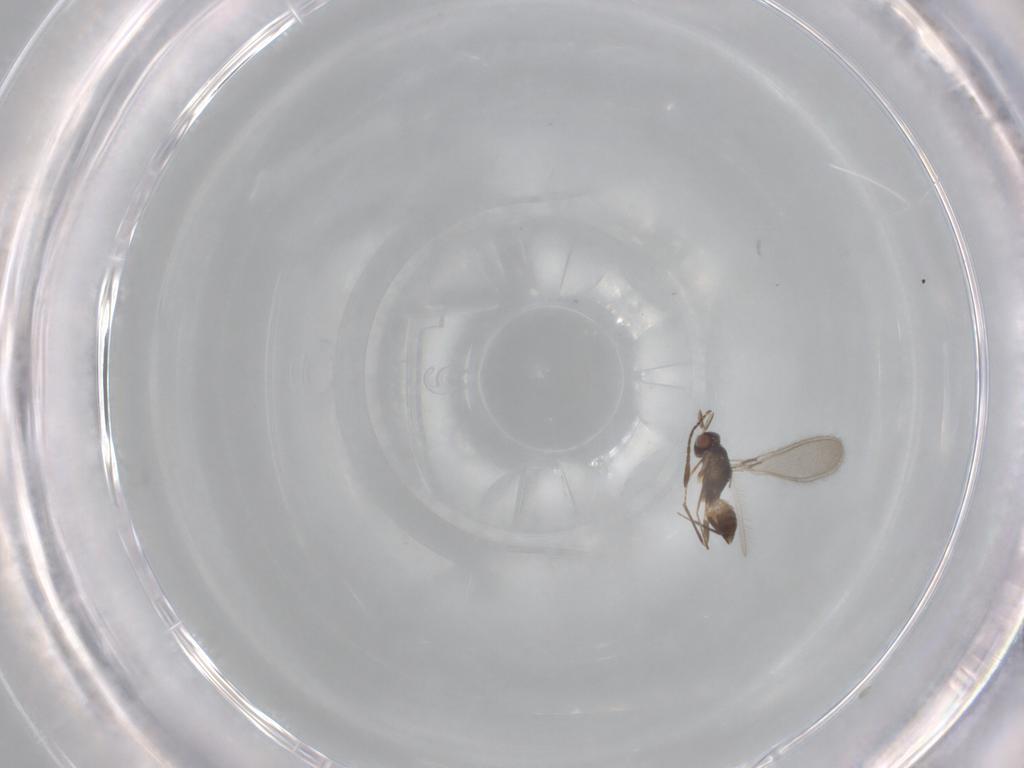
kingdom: Animalia
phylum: Arthropoda
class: Insecta
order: Hymenoptera
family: Mymaridae
